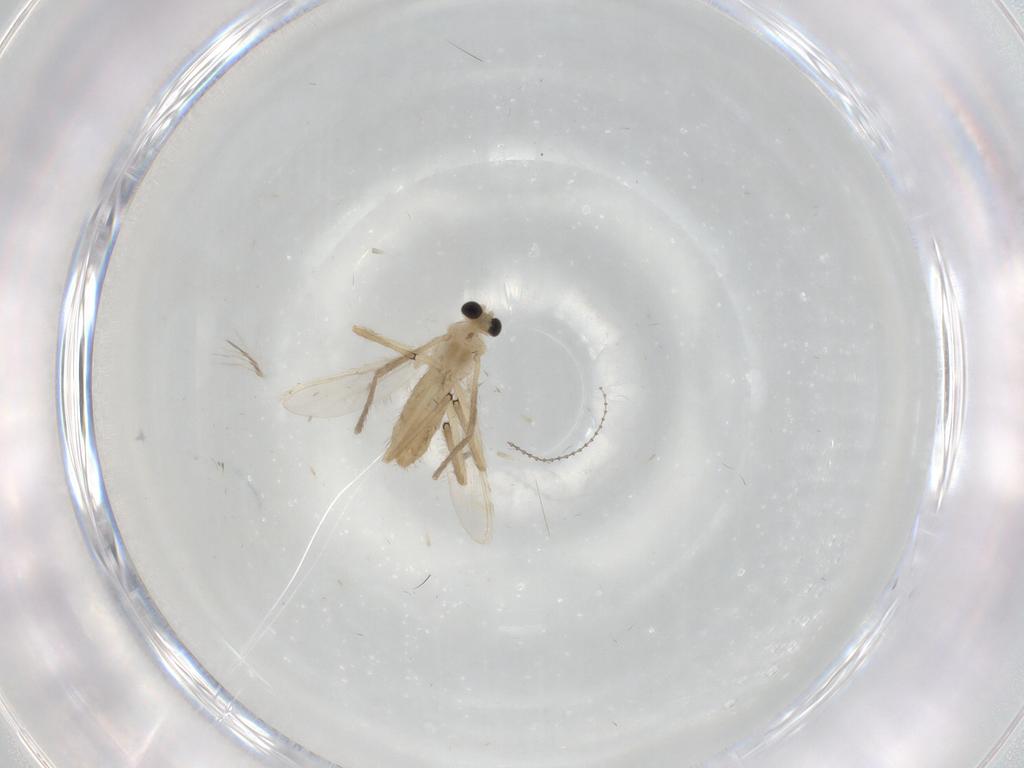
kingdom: Animalia
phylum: Arthropoda
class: Insecta
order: Diptera
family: Chironomidae
